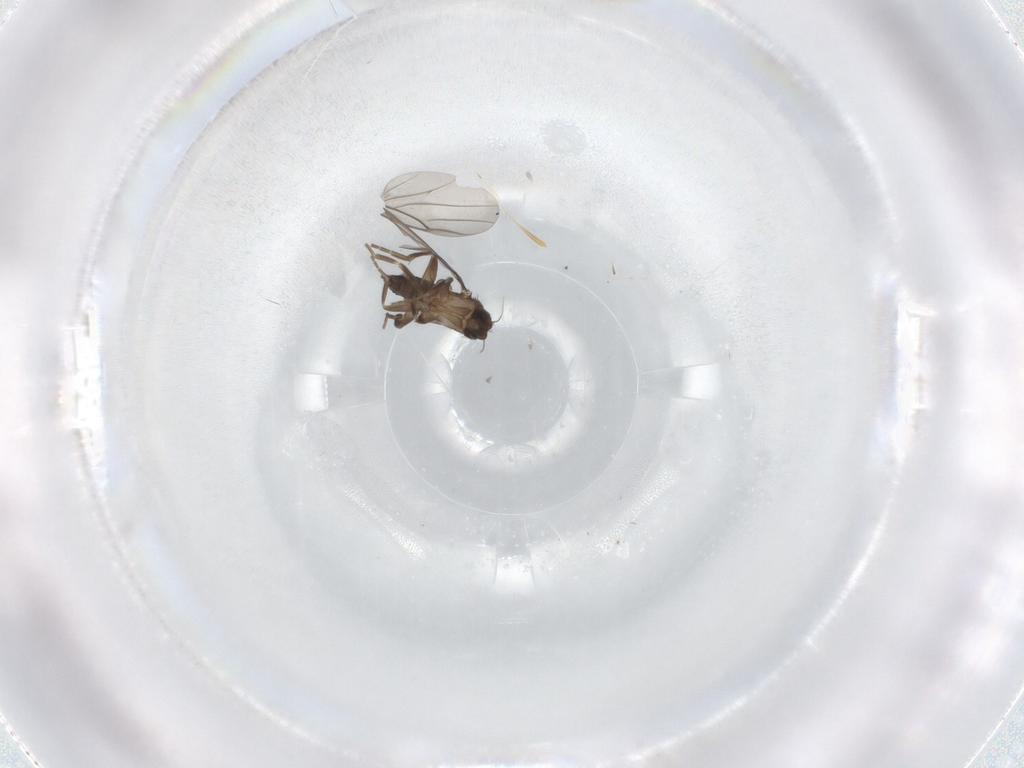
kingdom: Animalia
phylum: Arthropoda
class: Insecta
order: Diptera
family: Phoridae
